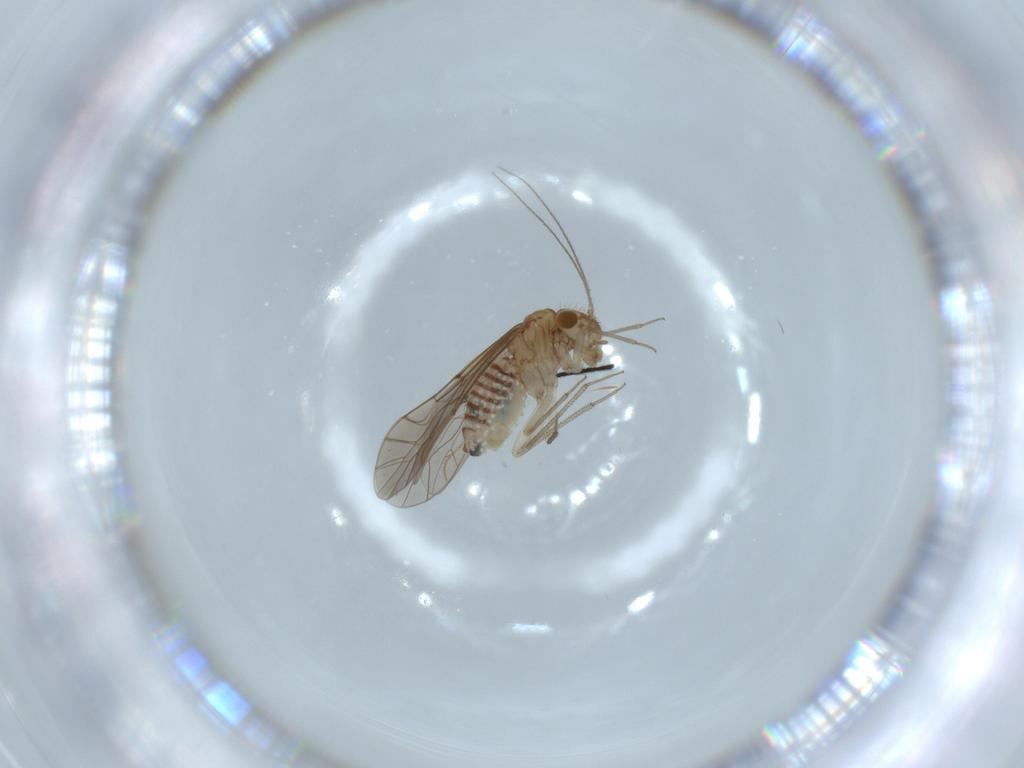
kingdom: Animalia
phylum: Arthropoda
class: Insecta
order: Psocodea
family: Lachesillidae
